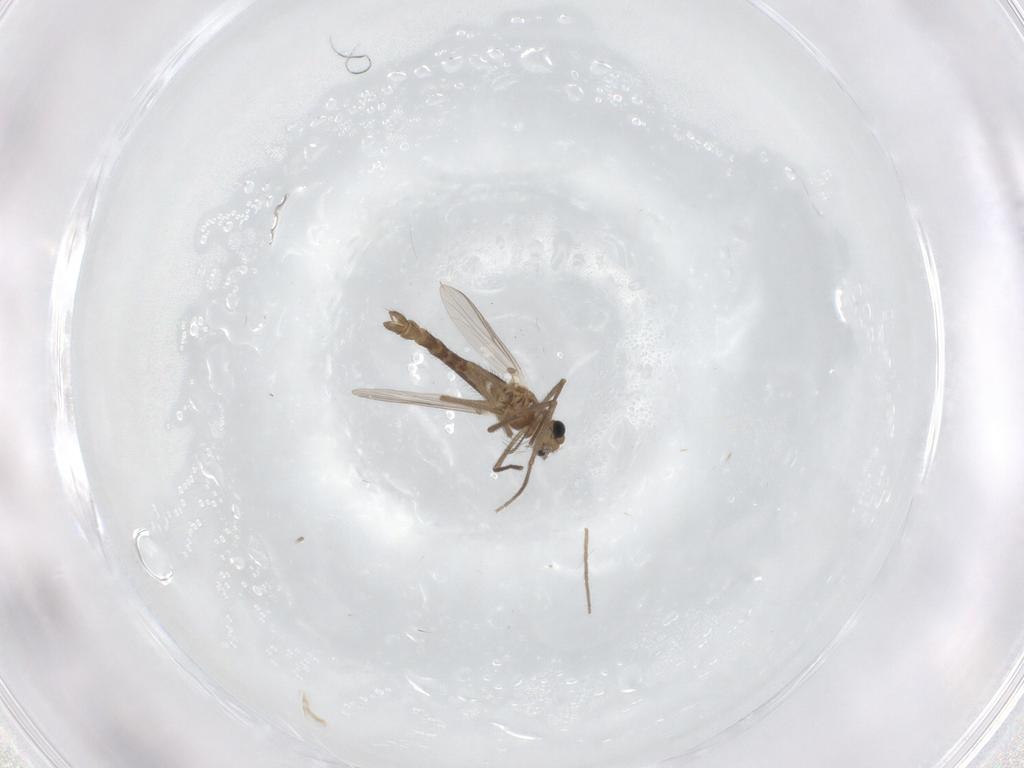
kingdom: Animalia
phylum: Arthropoda
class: Insecta
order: Diptera
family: Chironomidae
